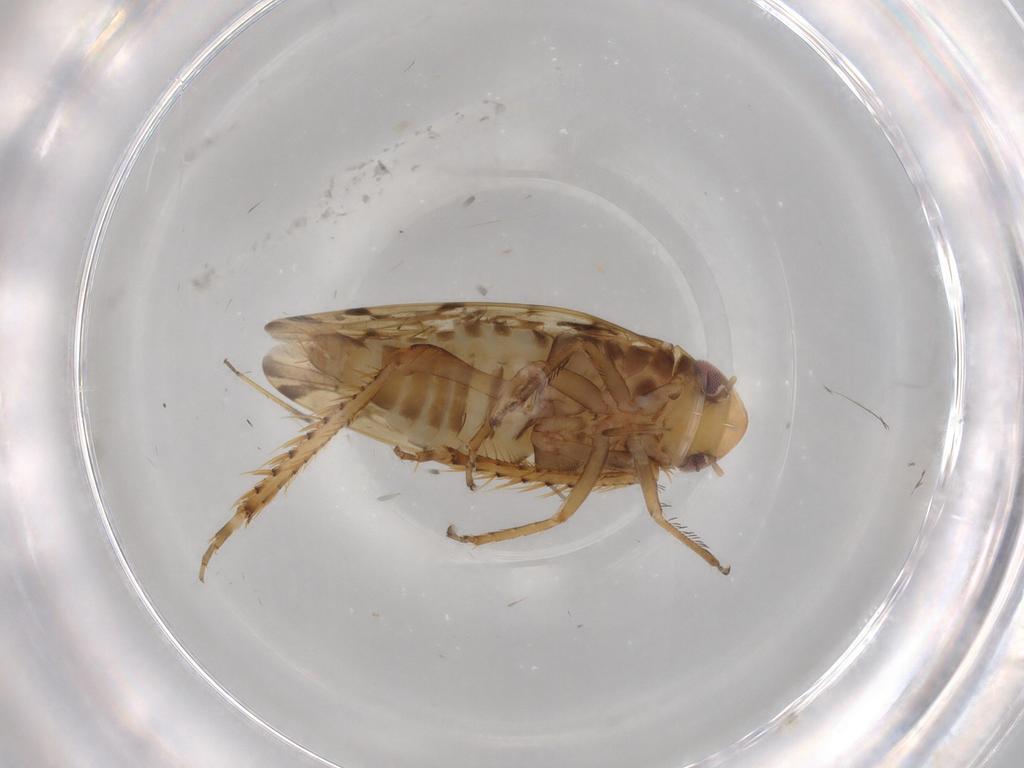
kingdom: Animalia
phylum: Arthropoda
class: Insecta
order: Hemiptera
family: Cicadellidae
